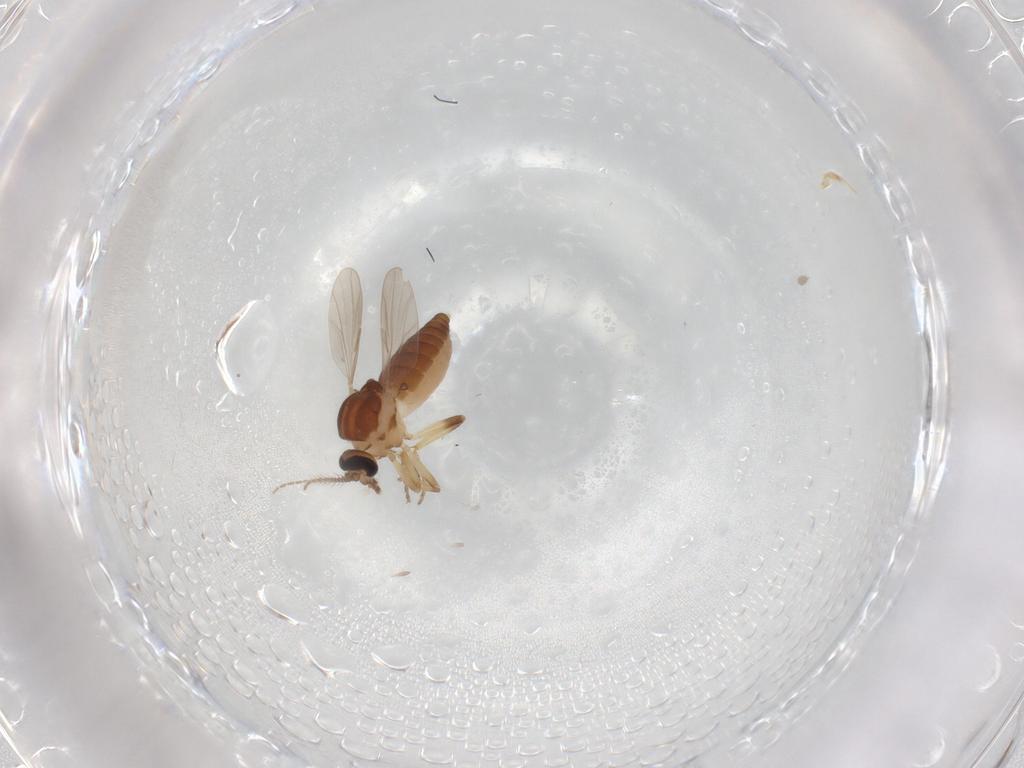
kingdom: Animalia
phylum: Arthropoda
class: Insecta
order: Diptera
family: Ceratopogonidae
